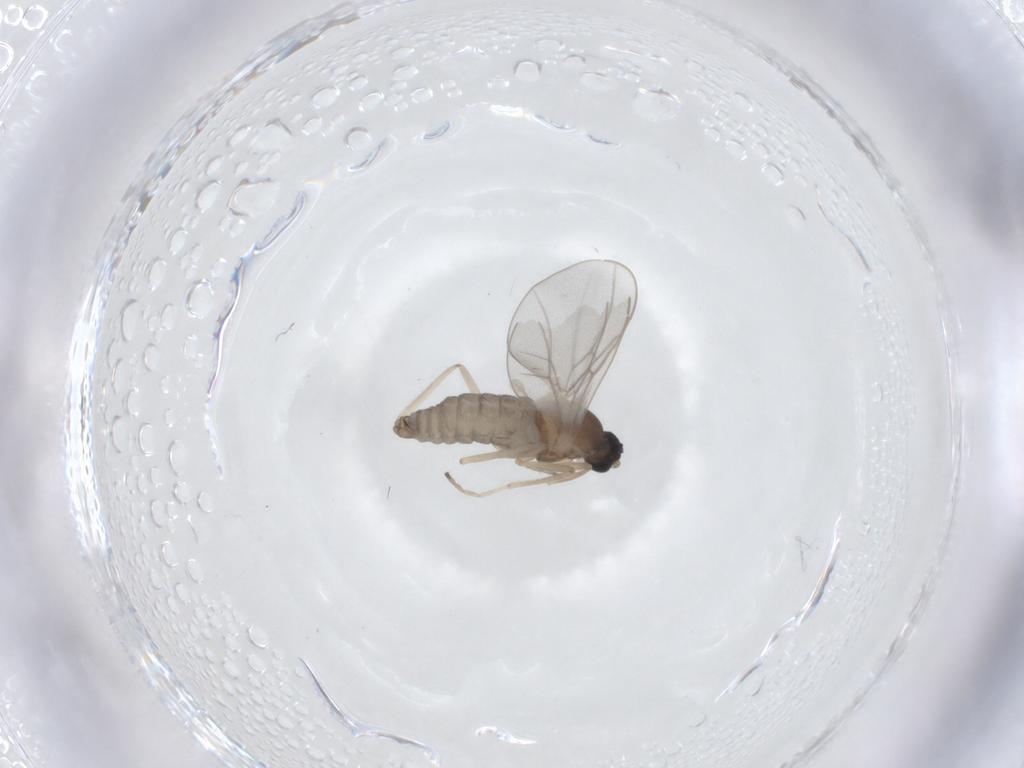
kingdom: Animalia
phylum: Arthropoda
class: Insecta
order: Diptera
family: Cecidomyiidae
